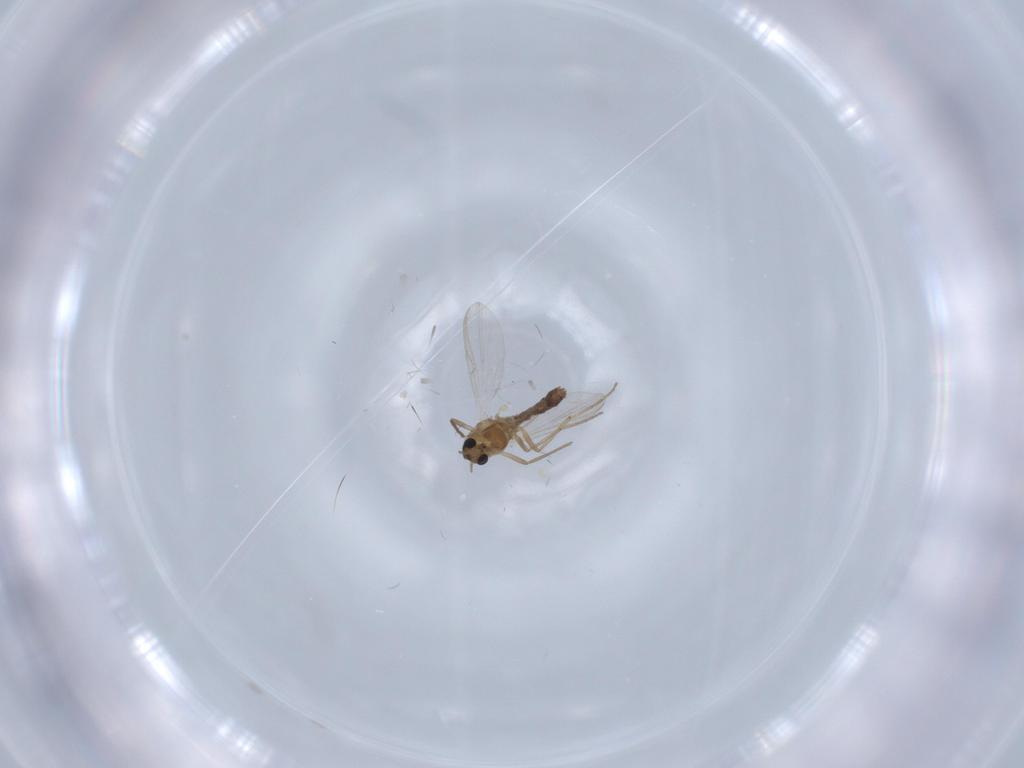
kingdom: Animalia
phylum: Arthropoda
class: Insecta
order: Diptera
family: Chironomidae
